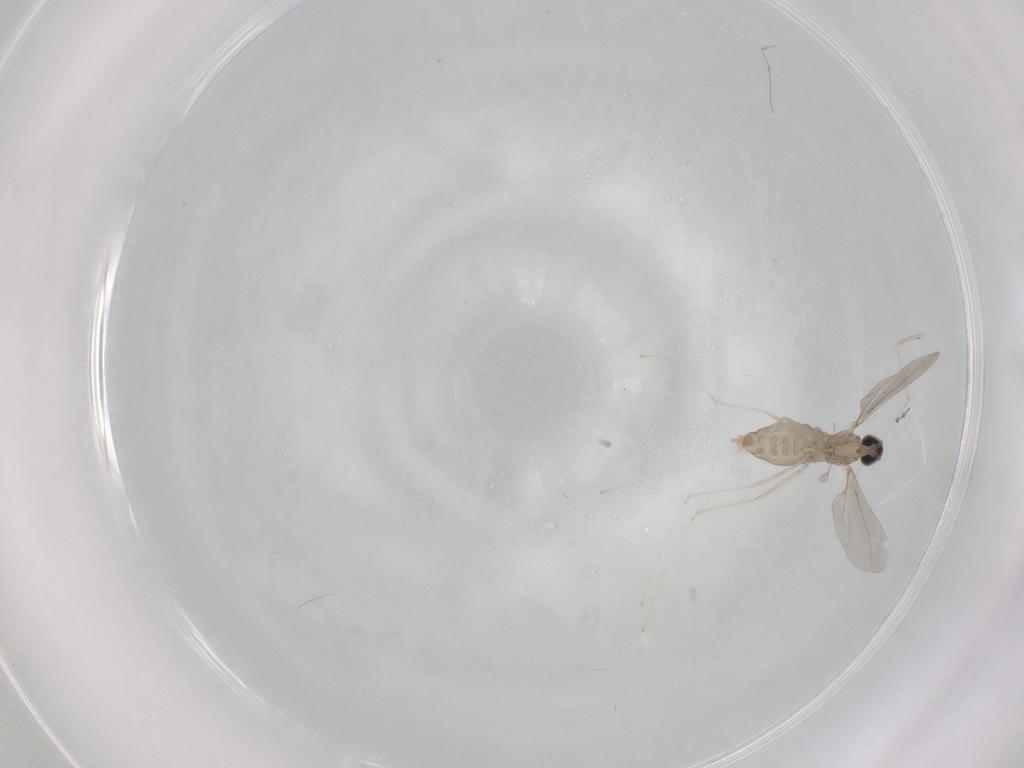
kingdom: Animalia
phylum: Arthropoda
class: Insecta
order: Diptera
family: Cecidomyiidae
